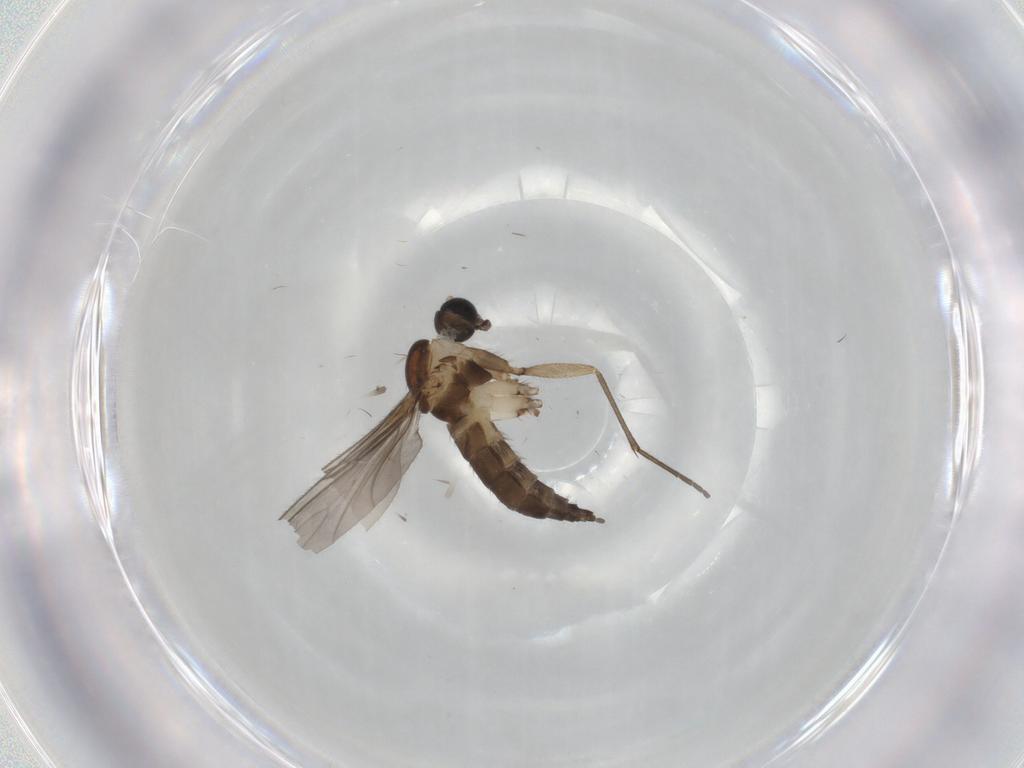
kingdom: Animalia
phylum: Arthropoda
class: Insecta
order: Diptera
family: Sciaridae
